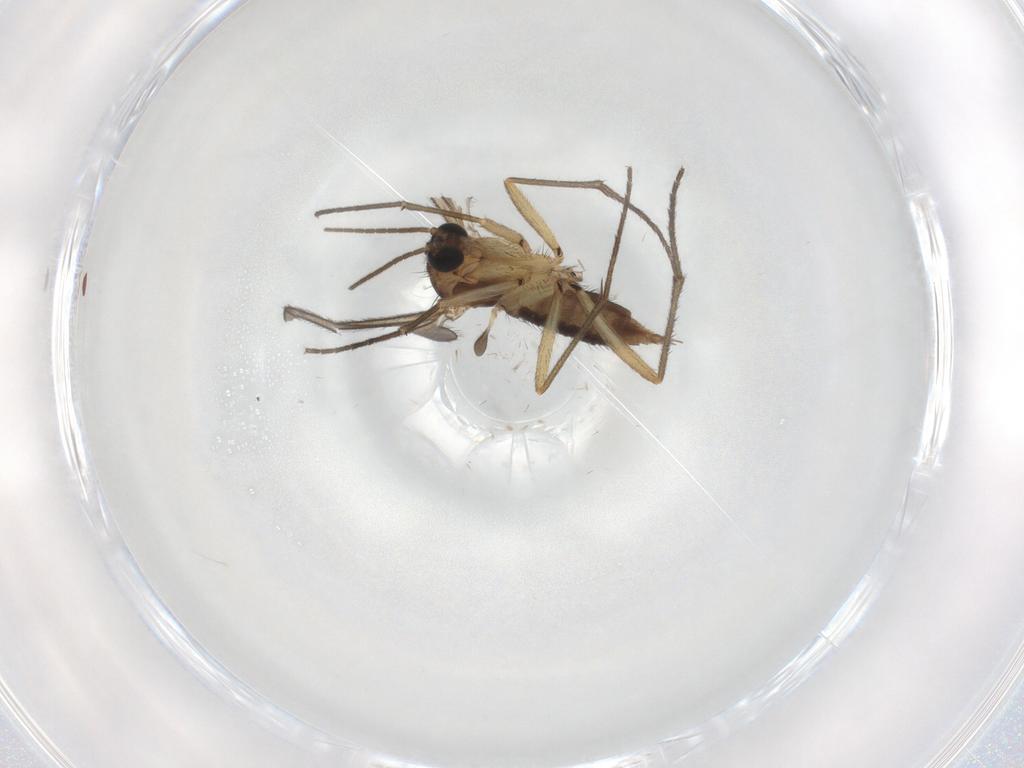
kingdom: Animalia
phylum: Arthropoda
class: Insecta
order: Diptera
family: Sciaridae
